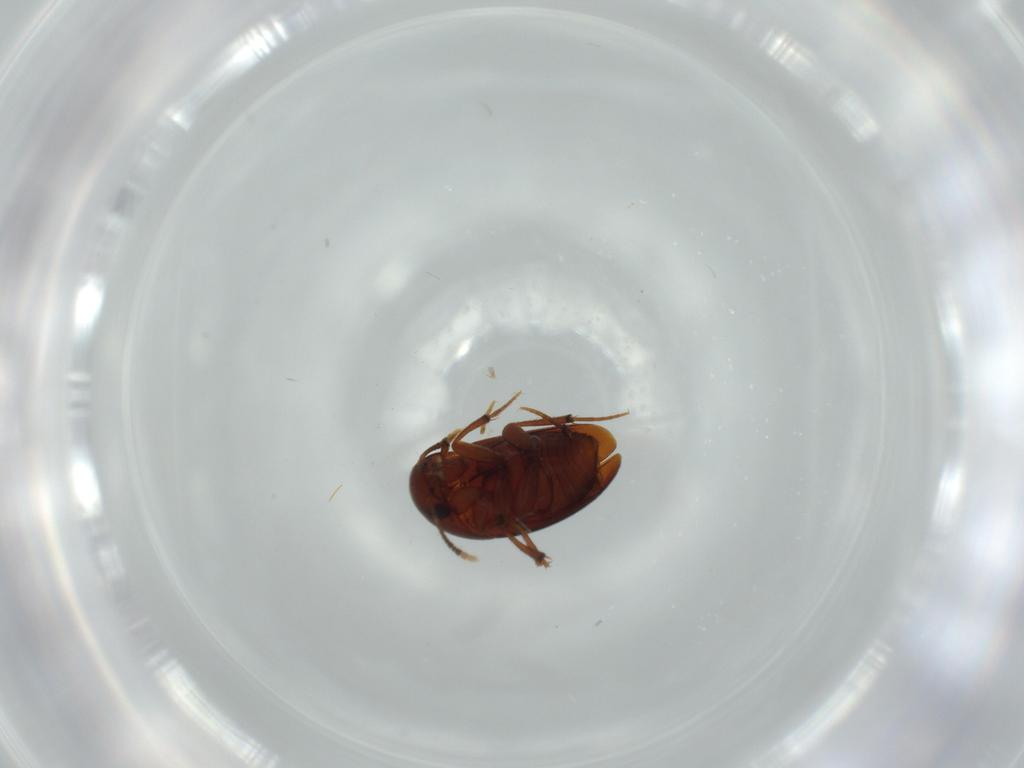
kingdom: Animalia
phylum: Arthropoda
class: Insecta
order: Coleoptera
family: Leiodidae
